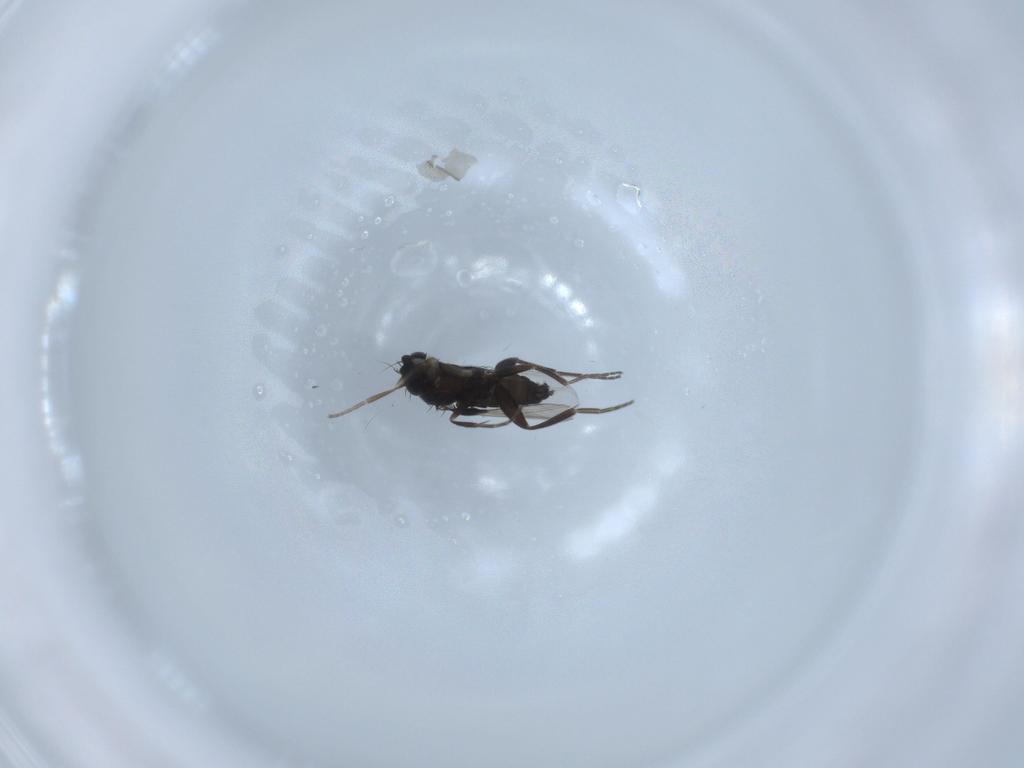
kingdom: Animalia
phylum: Arthropoda
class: Insecta
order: Diptera
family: Phoridae
